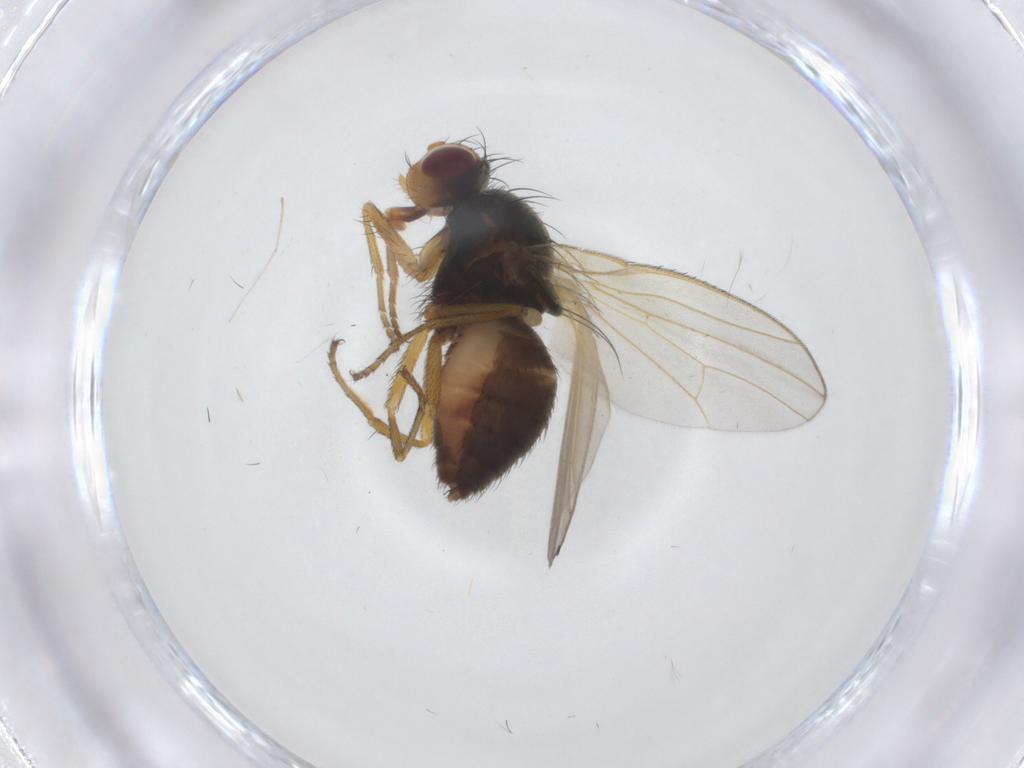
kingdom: Animalia
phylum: Arthropoda
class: Insecta
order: Diptera
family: Heleomyzidae
